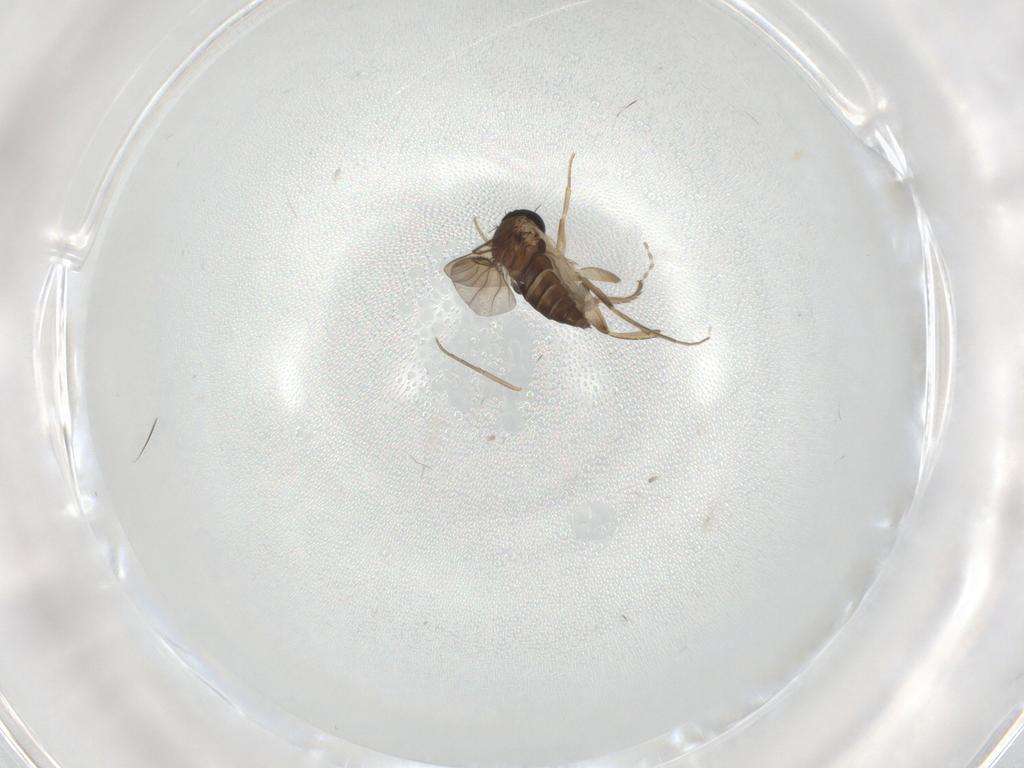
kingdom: Animalia
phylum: Arthropoda
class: Insecta
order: Diptera
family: Phoridae
